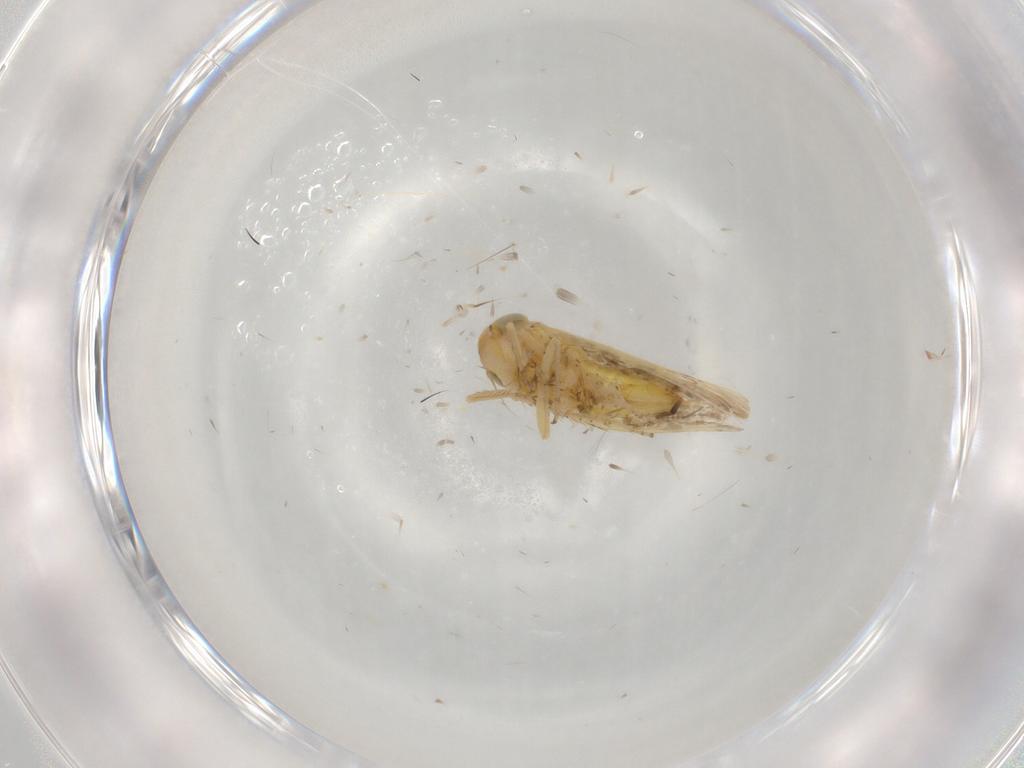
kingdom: Animalia
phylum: Arthropoda
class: Insecta
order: Hemiptera
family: Cicadellidae
